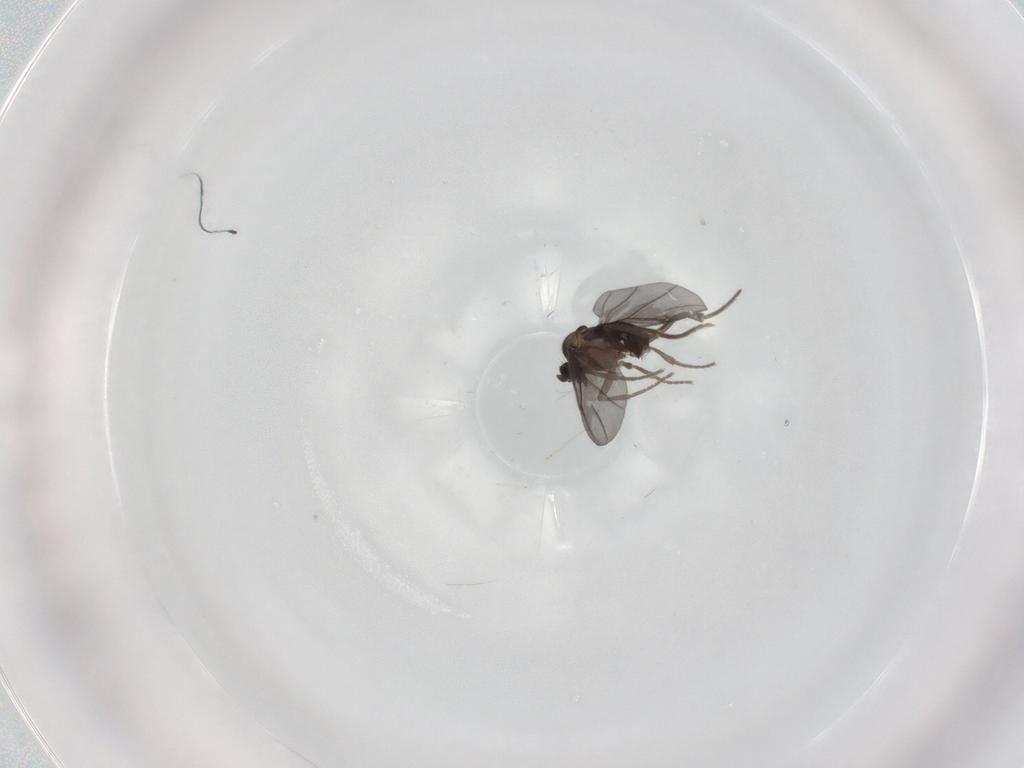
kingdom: Animalia
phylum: Arthropoda
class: Insecta
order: Diptera
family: Phoridae
